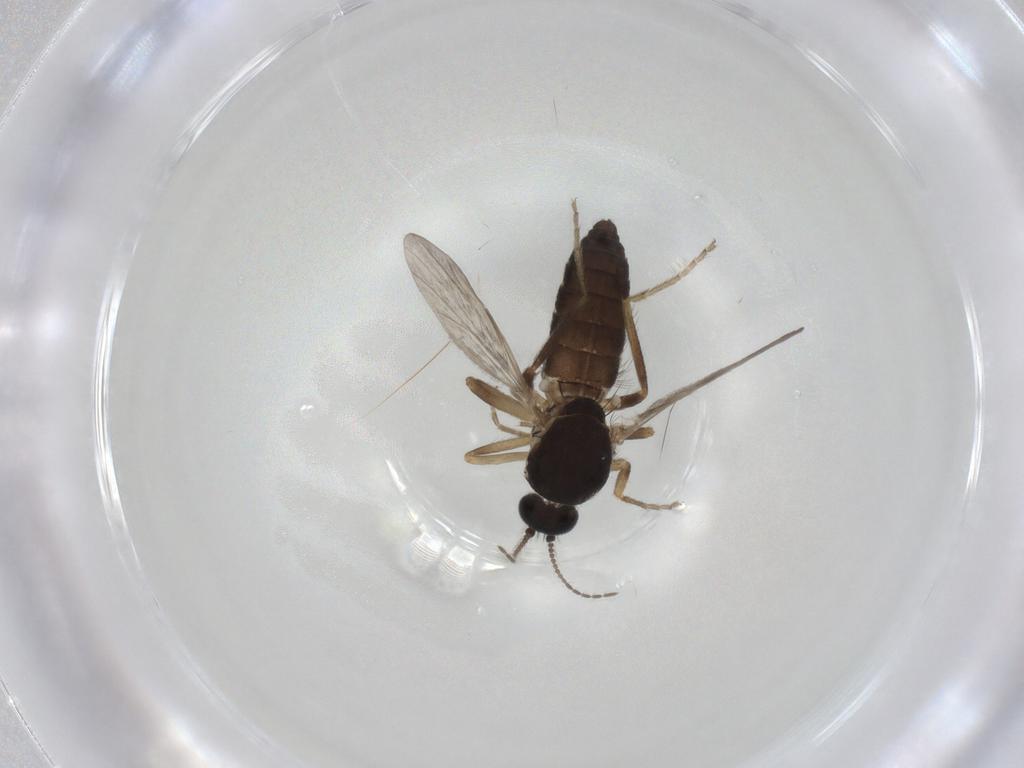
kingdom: Animalia
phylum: Arthropoda
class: Insecta
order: Diptera
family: Ceratopogonidae
